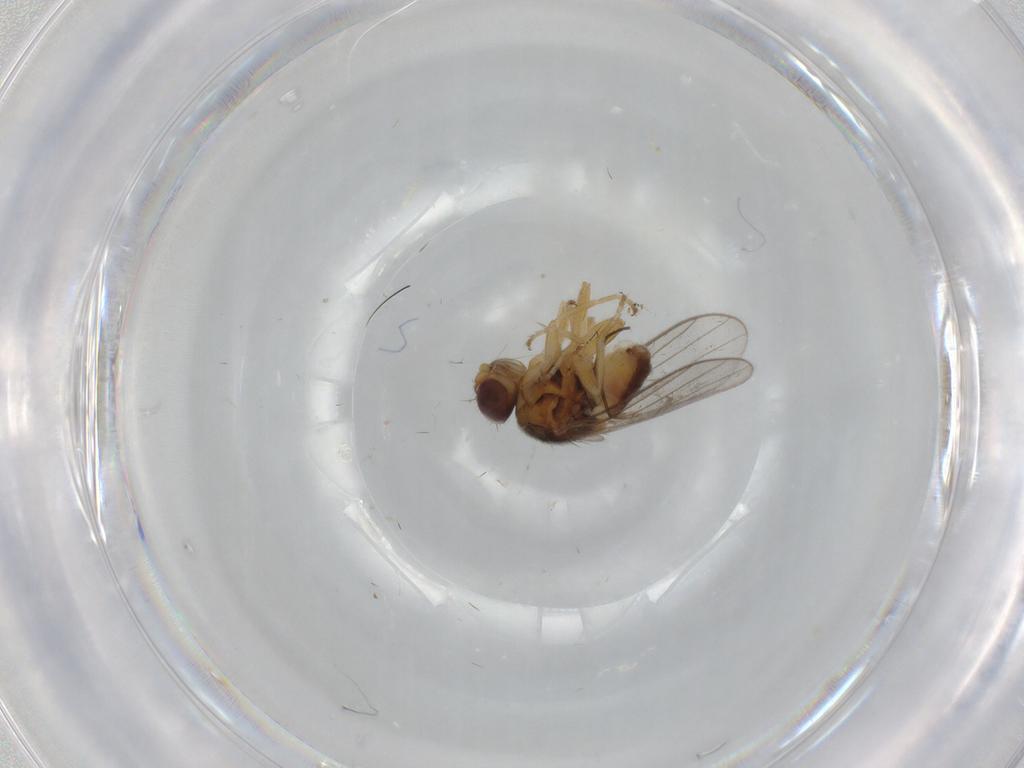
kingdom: Animalia
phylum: Arthropoda
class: Insecta
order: Diptera
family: Chloropidae
